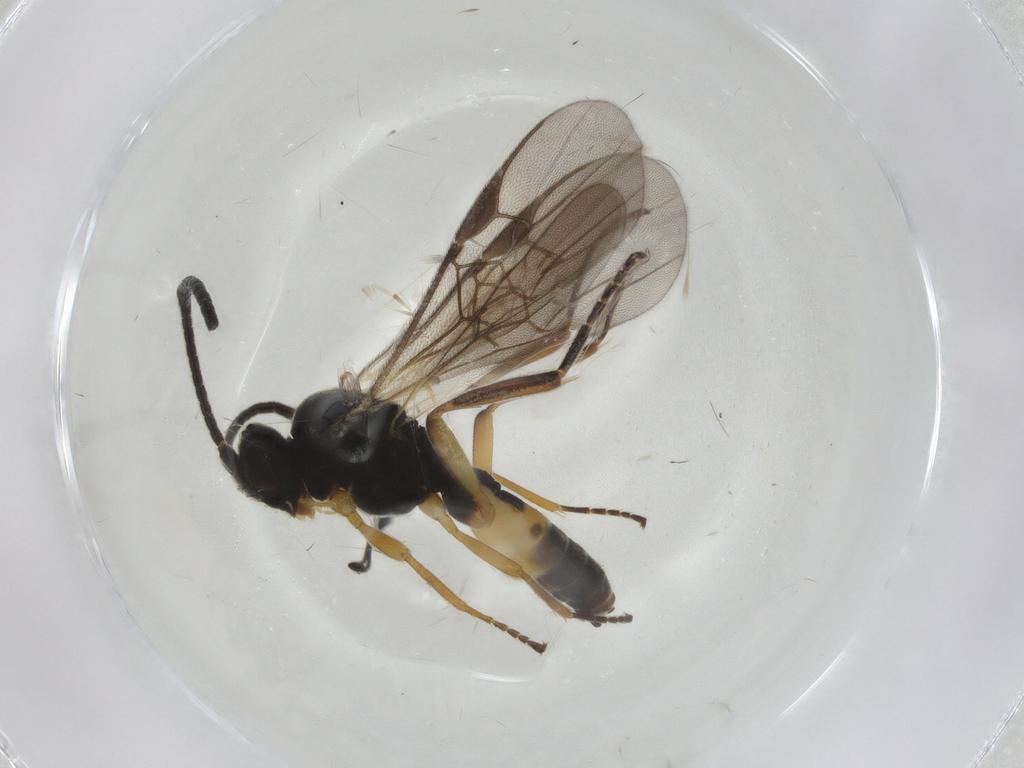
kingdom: Animalia
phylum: Arthropoda
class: Insecta
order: Hymenoptera
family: Braconidae
